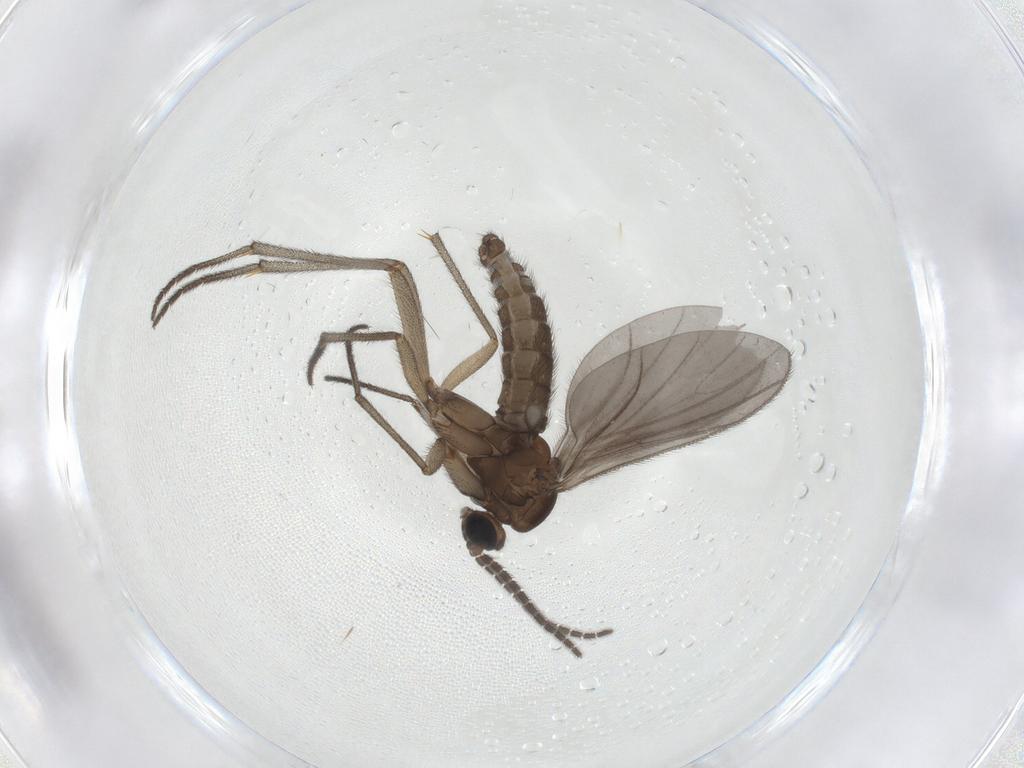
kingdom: Animalia
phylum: Arthropoda
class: Insecta
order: Diptera
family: Sciaridae
